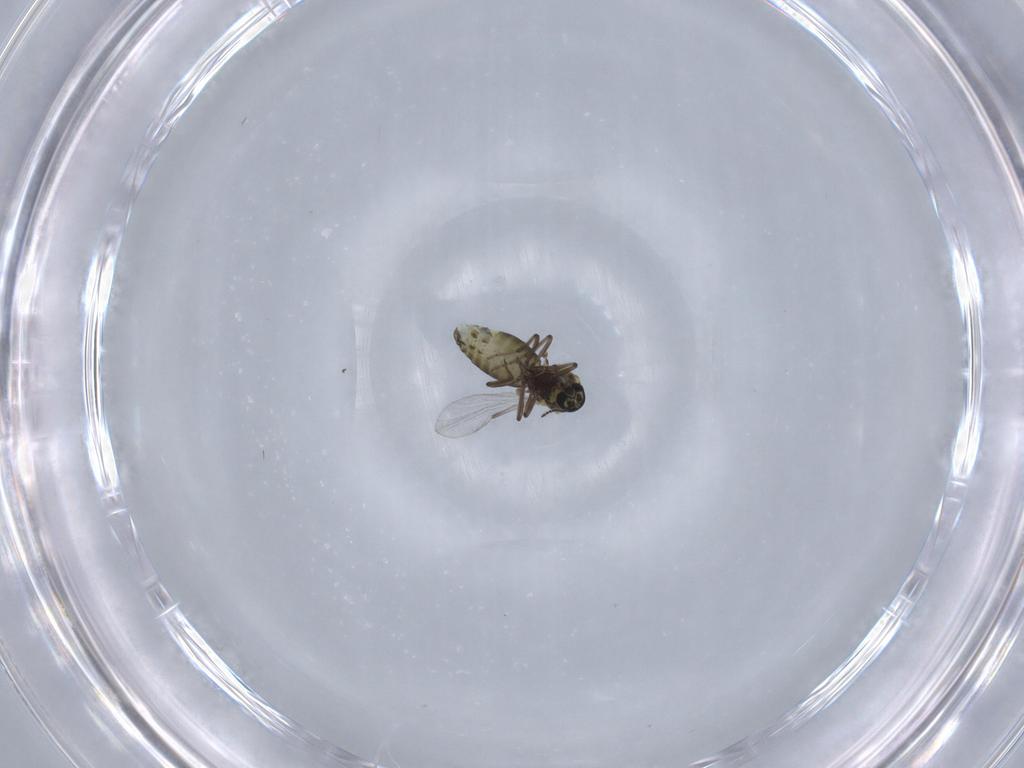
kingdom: Animalia
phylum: Arthropoda
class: Insecta
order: Diptera
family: Ceratopogonidae
